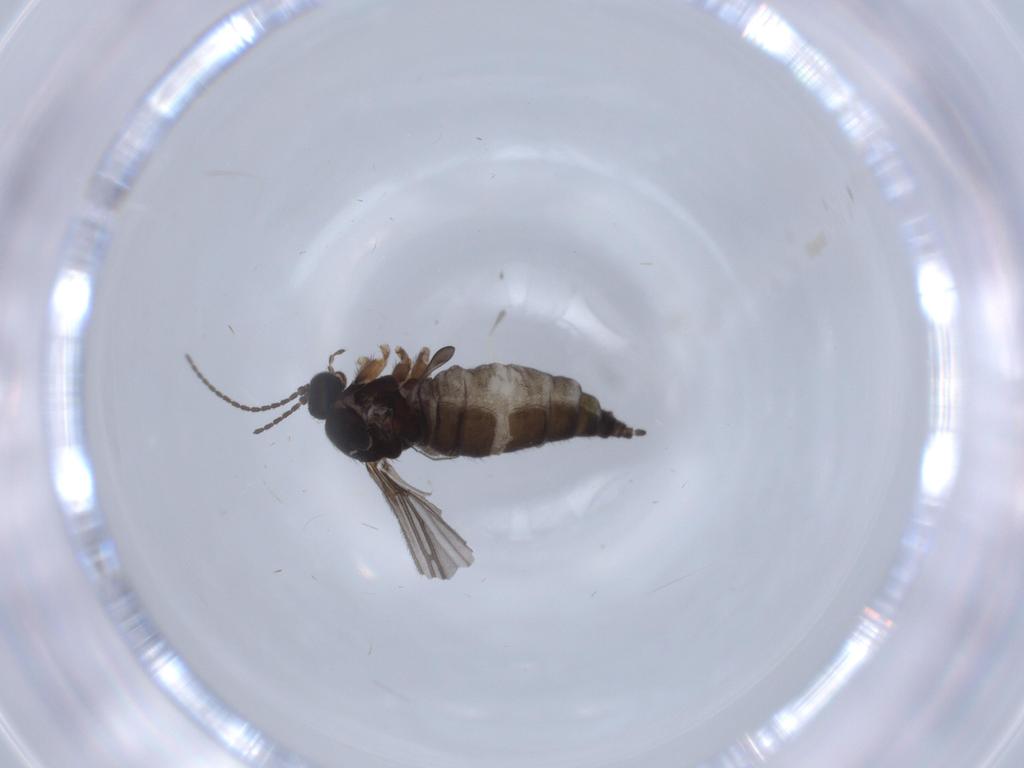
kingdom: Animalia
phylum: Arthropoda
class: Insecta
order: Diptera
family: Sciaridae
